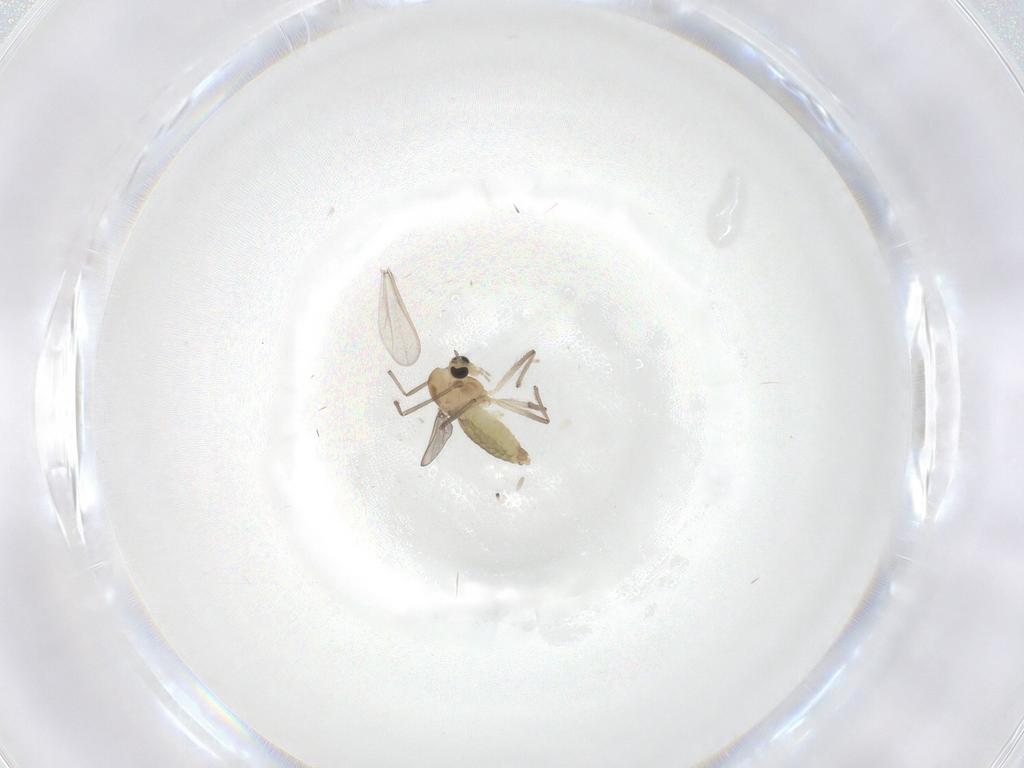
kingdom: Animalia
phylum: Arthropoda
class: Insecta
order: Diptera
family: Chironomidae
